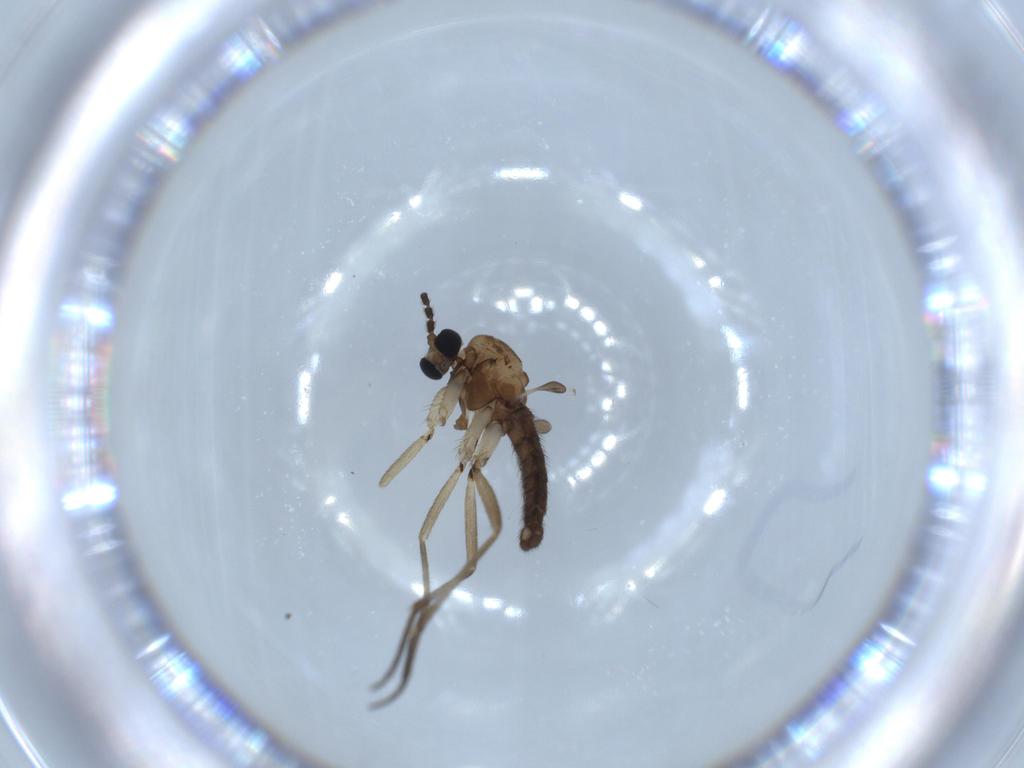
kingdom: Animalia
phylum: Arthropoda
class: Insecta
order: Diptera
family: Sciaridae
